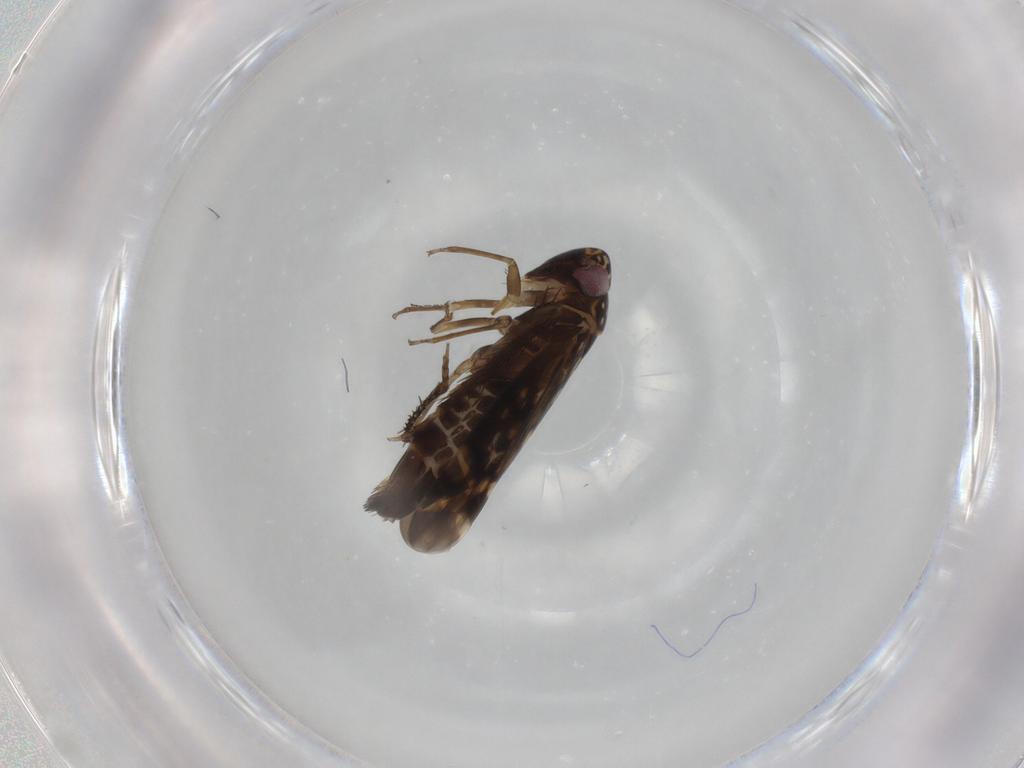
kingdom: Animalia
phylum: Arthropoda
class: Insecta
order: Hemiptera
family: Cicadellidae
